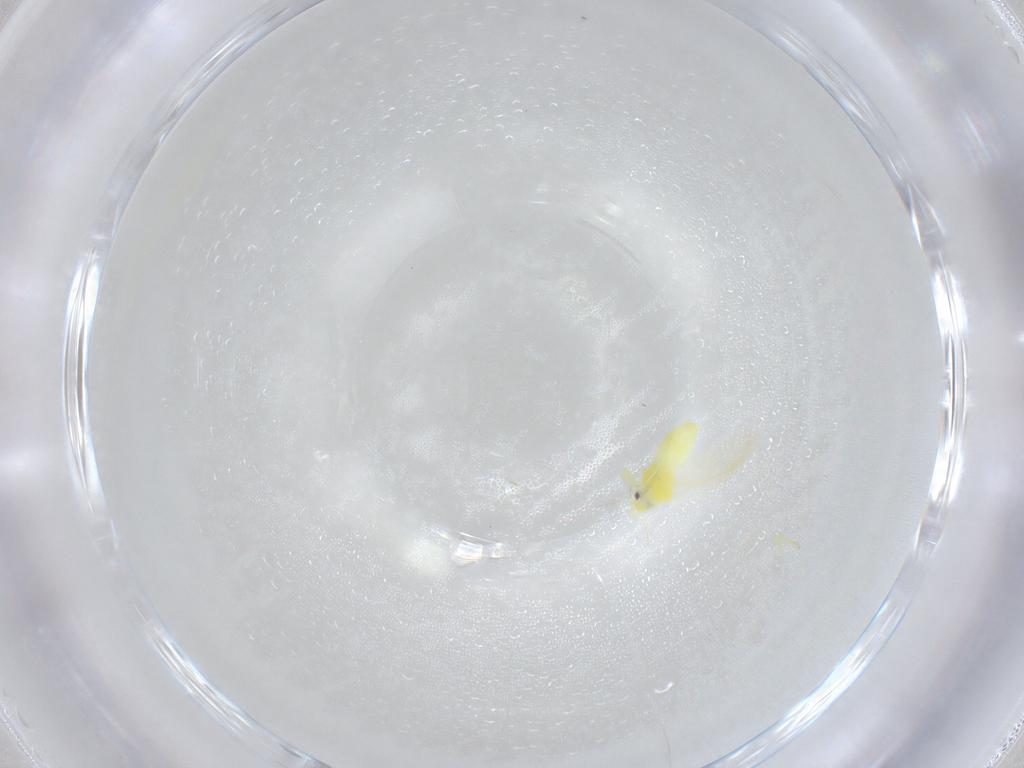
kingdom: Animalia
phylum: Arthropoda
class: Insecta
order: Hemiptera
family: Aleyrodidae
